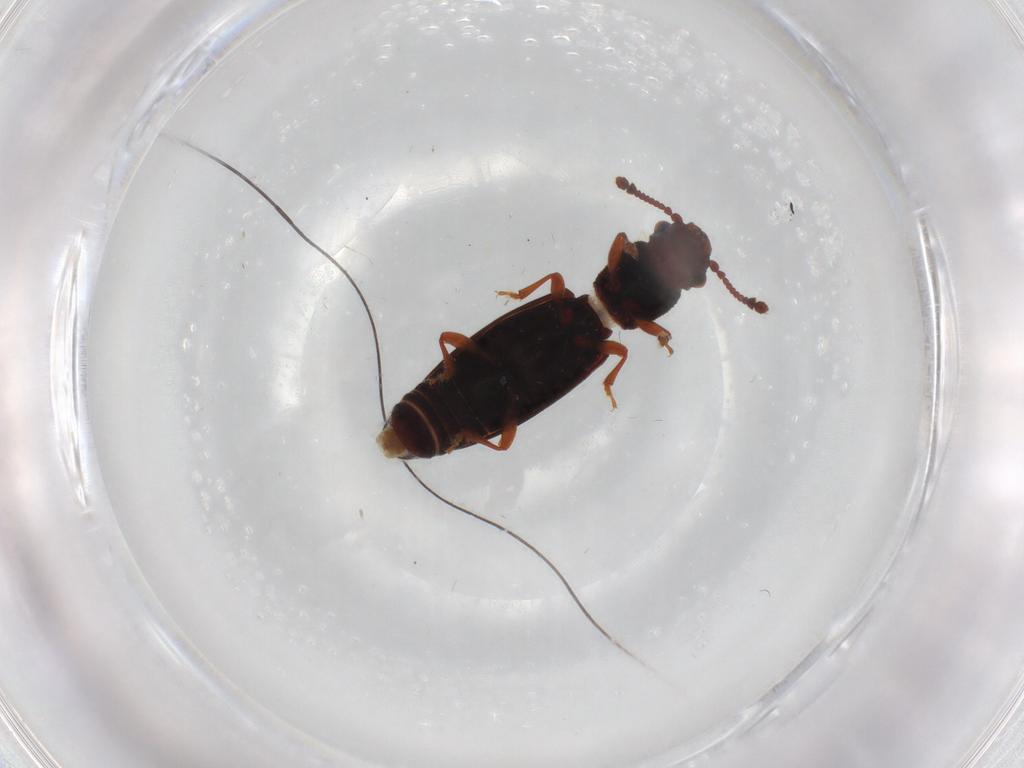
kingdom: Animalia
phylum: Arthropoda
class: Insecta
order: Coleoptera
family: Monotomidae
